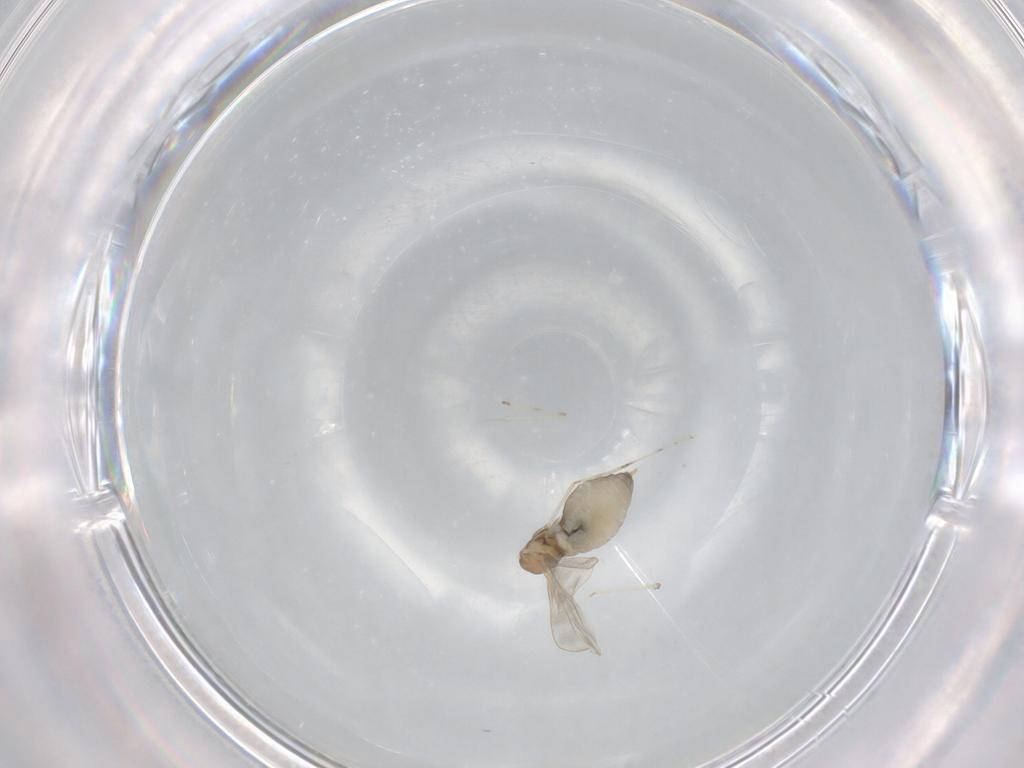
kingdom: Animalia
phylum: Arthropoda
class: Insecta
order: Diptera
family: Cecidomyiidae
